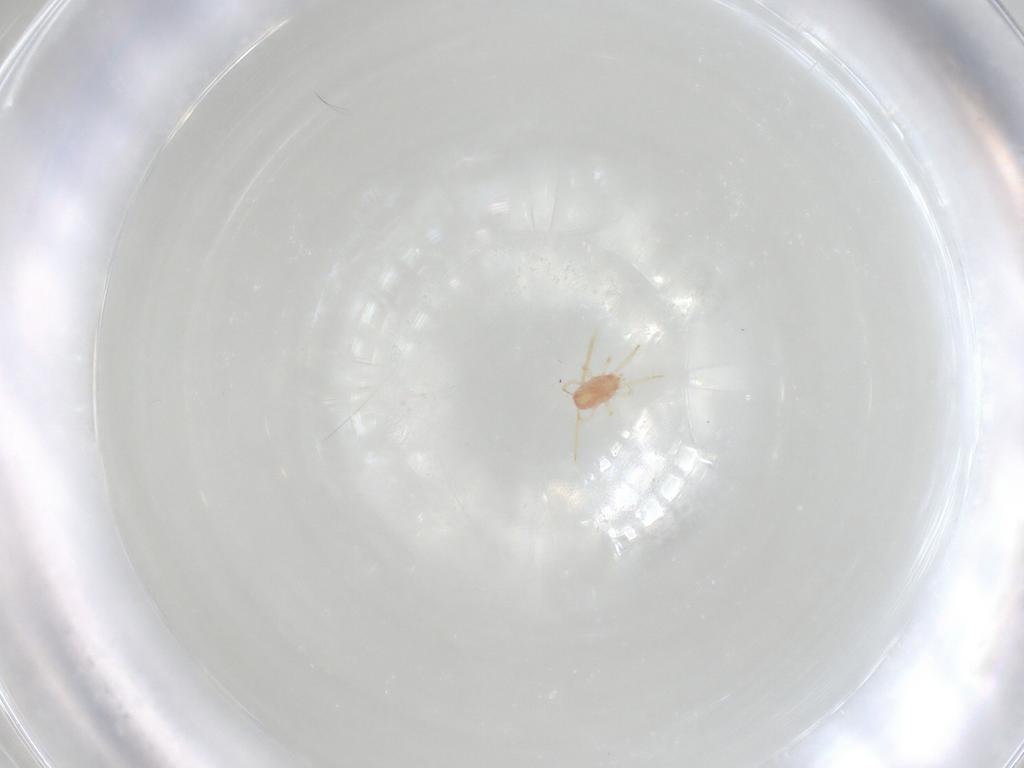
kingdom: Animalia
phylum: Arthropoda
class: Arachnida
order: Mesostigmata
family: Phytoseiidae
